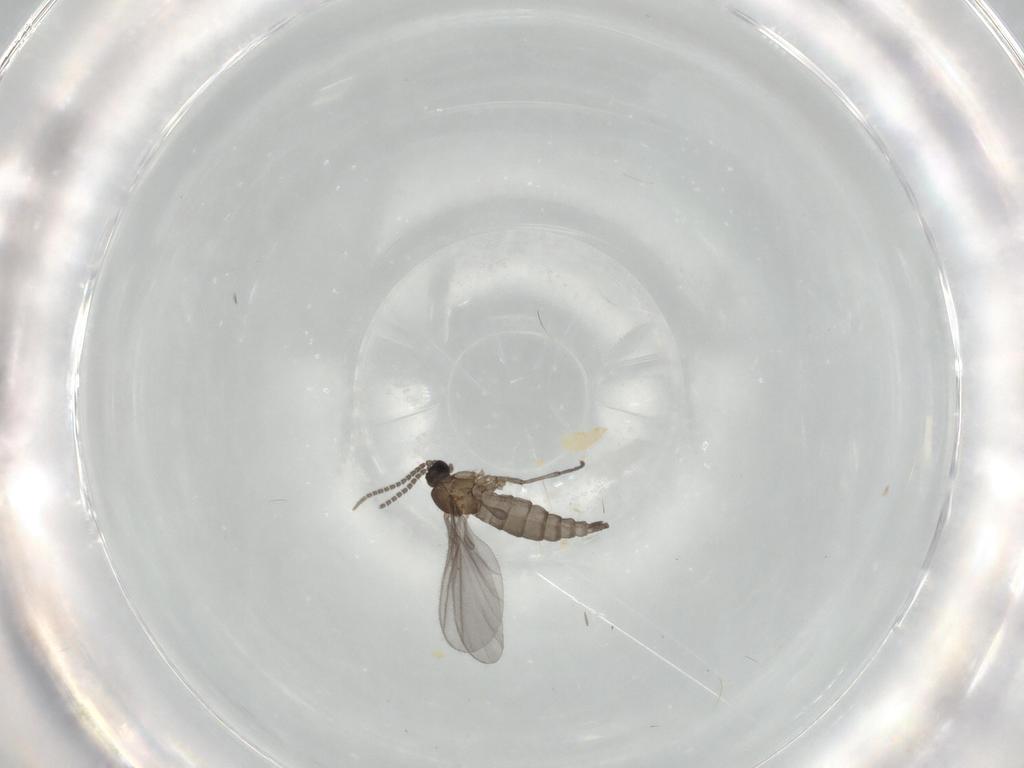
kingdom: Animalia
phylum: Arthropoda
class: Insecta
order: Diptera
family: Sciaridae
